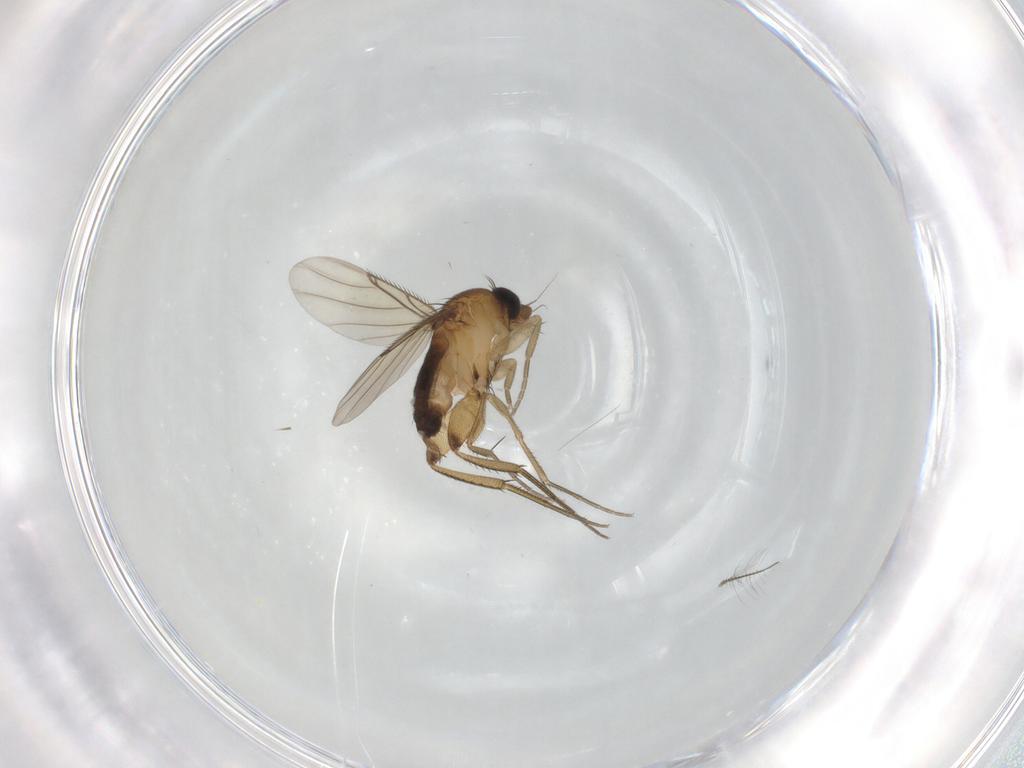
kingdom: Animalia
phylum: Arthropoda
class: Insecta
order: Diptera
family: Phoridae
